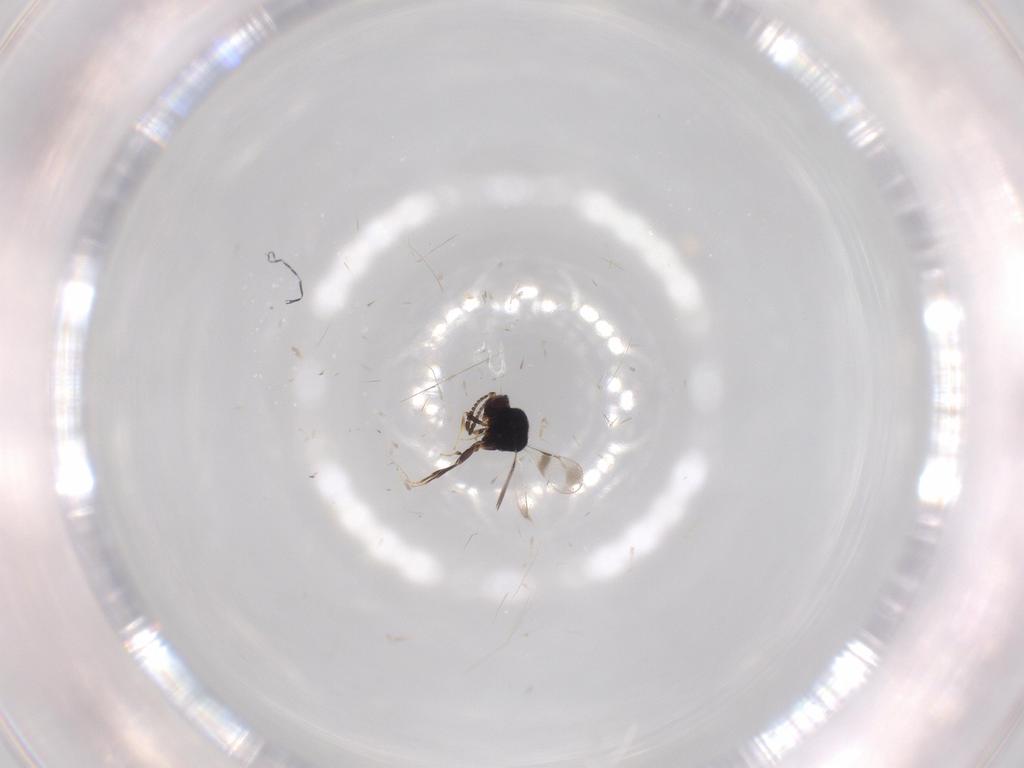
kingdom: Animalia
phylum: Arthropoda
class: Insecta
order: Hymenoptera
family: Ceraphronidae
